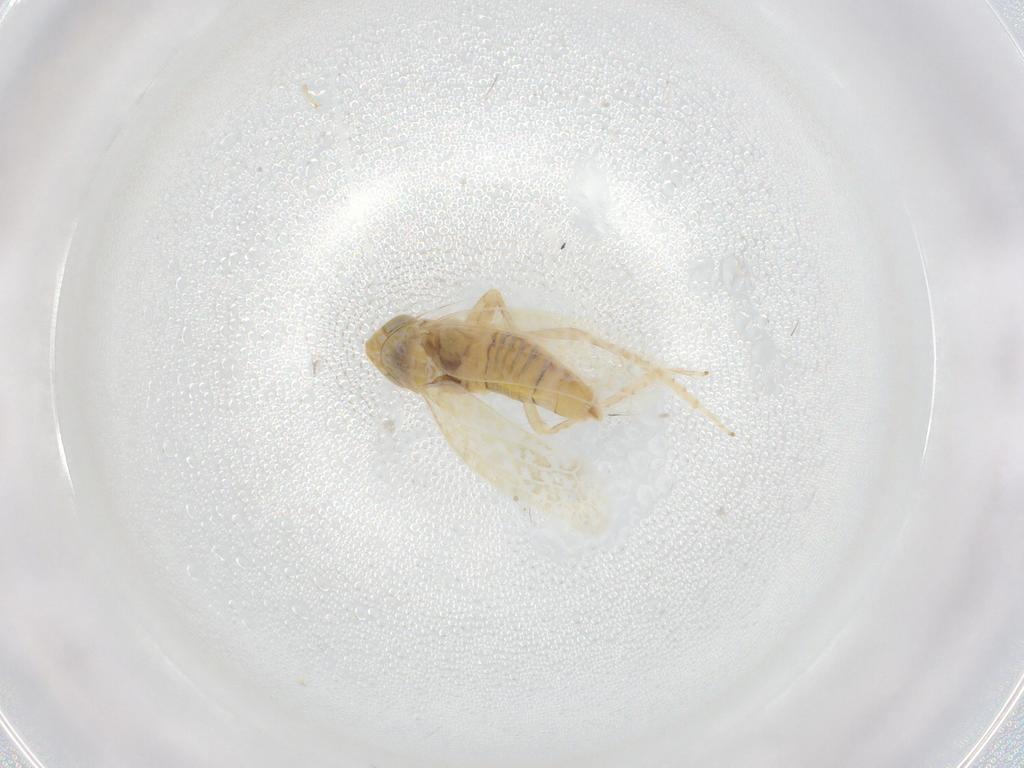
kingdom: Animalia
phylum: Arthropoda
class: Insecta
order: Hemiptera
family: Cicadellidae
